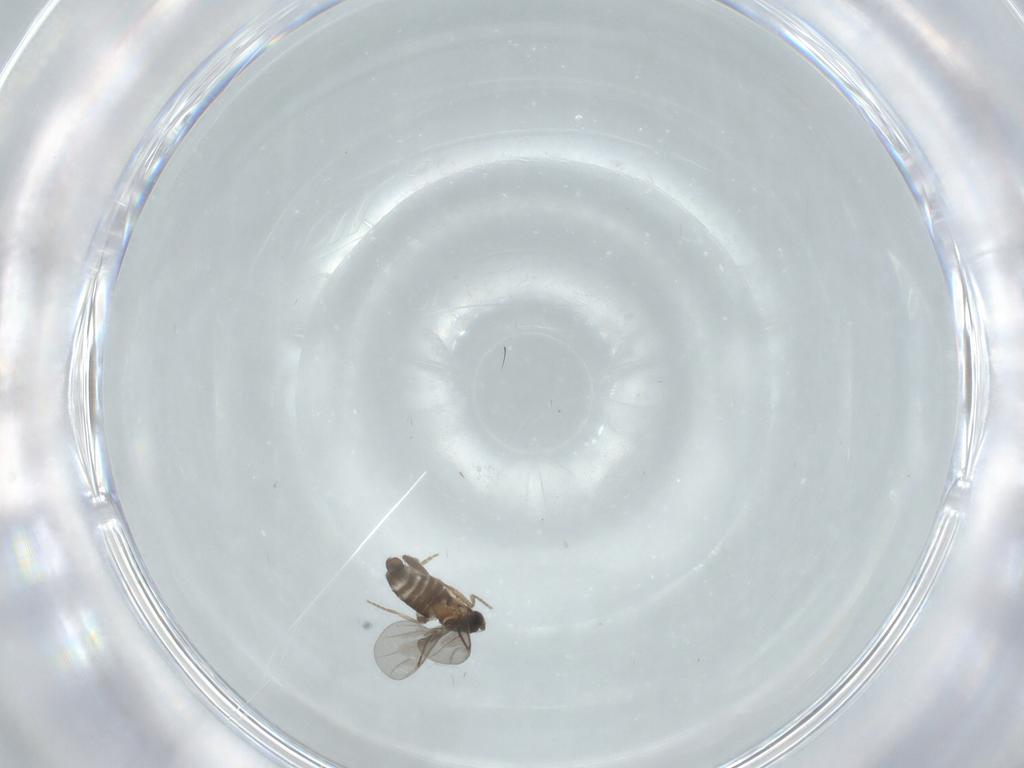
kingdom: Animalia
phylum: Arthropoda
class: Insecta
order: Diptera
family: Chironomidae
